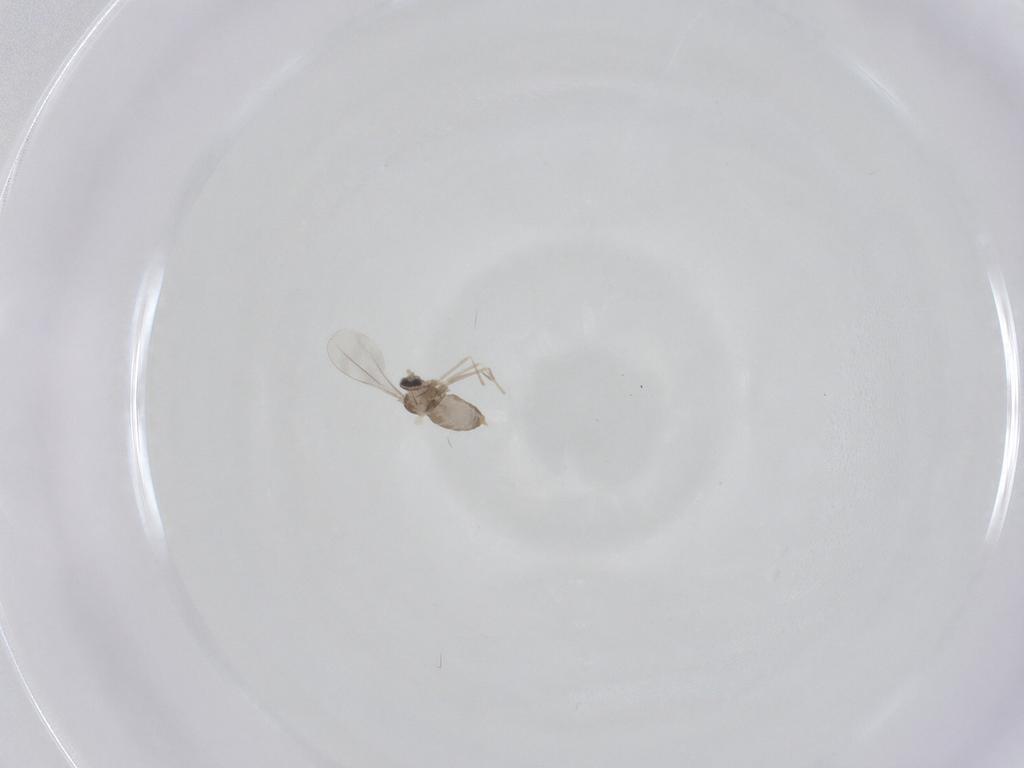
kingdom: Animalia
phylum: Arthropoda
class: Insecta
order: Diptera
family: Cecidomyiidae
